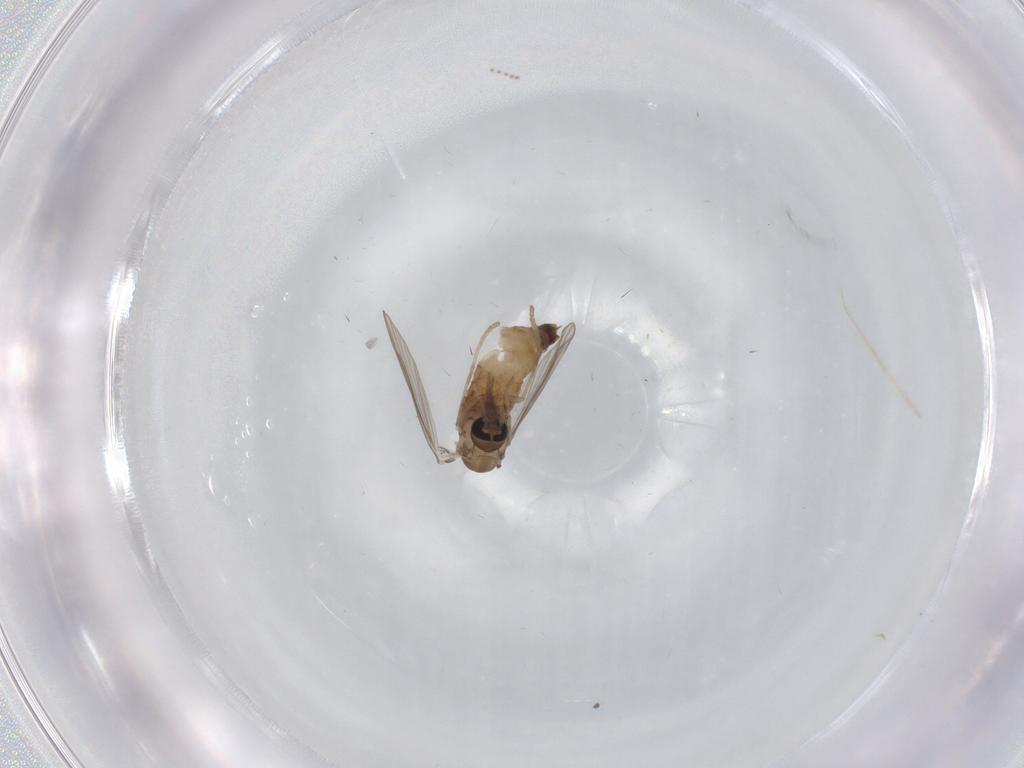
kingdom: Animalia
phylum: Arthropoda
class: Insecta
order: Diptera
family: Psychodidae
